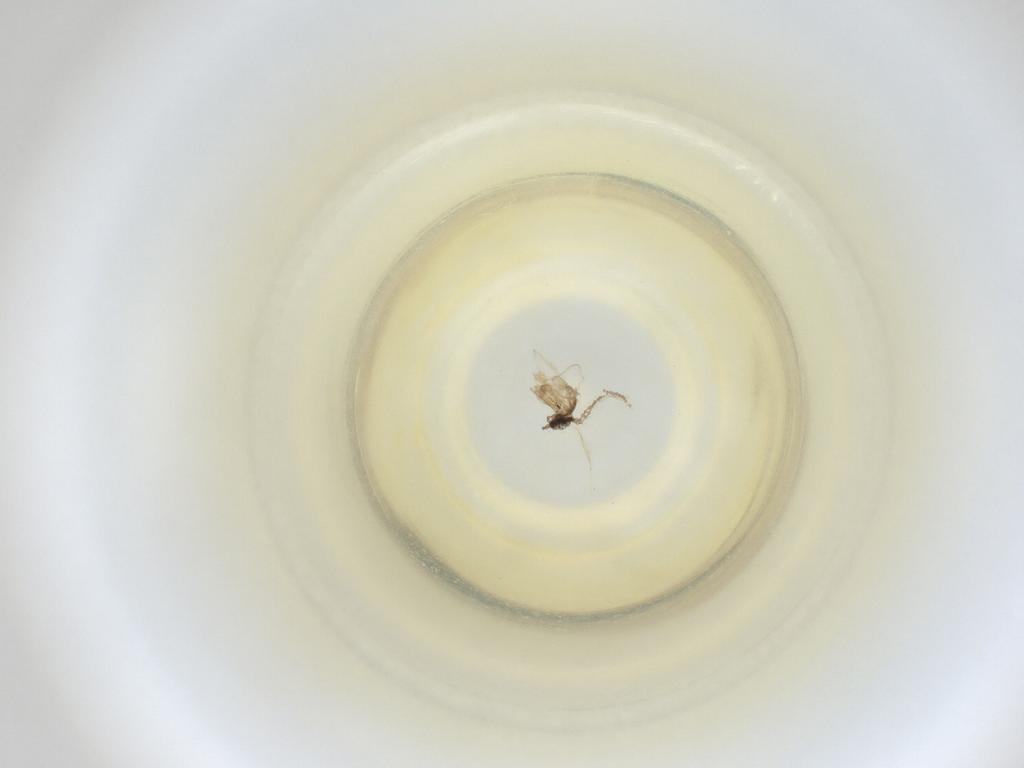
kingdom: Animalia
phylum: Arthropoda
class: Insecta
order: Diptera
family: Cecidomyiidae
